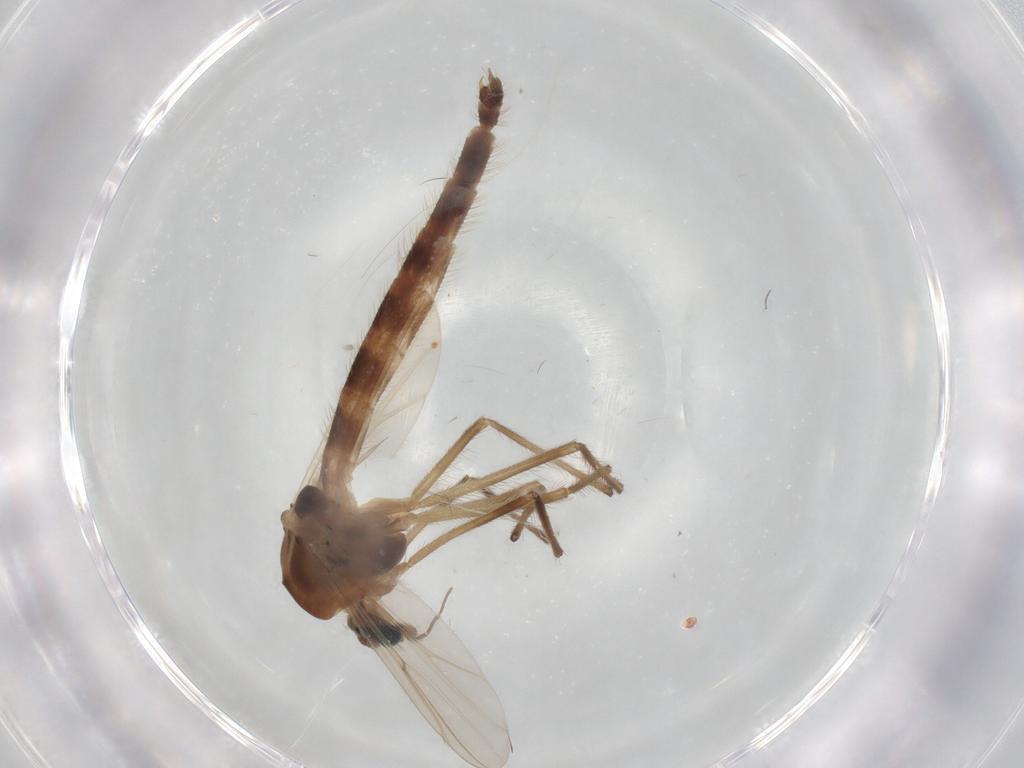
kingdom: Animalia
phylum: Arthropoda
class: Insecta
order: Diptera
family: Chironomidae
